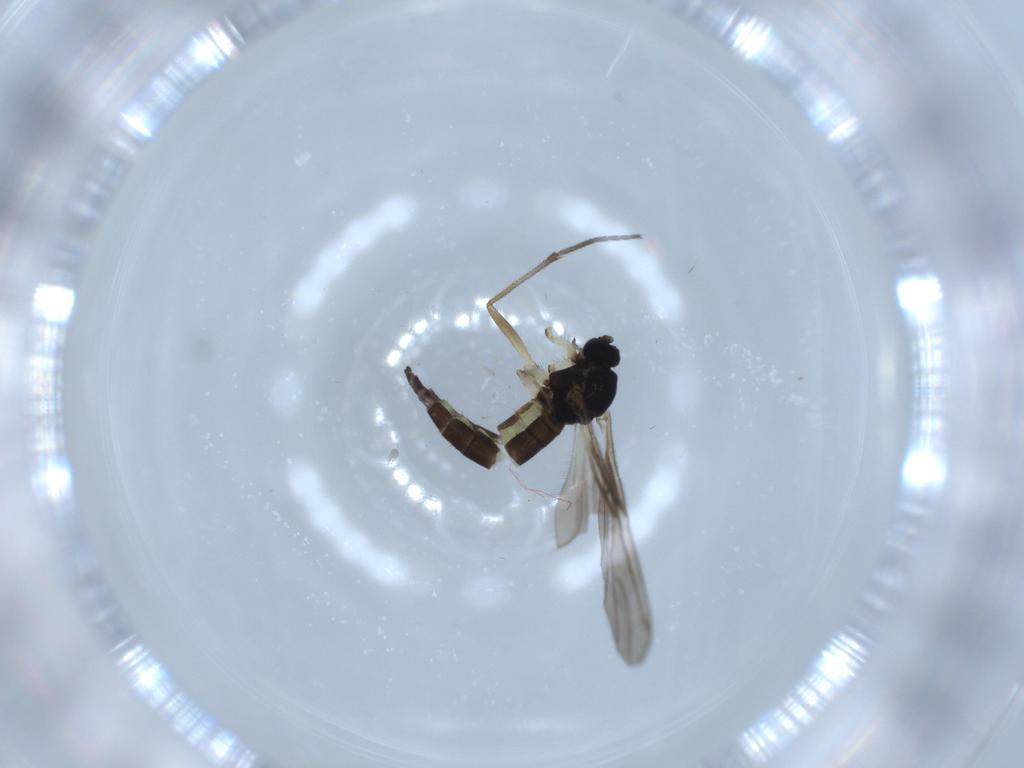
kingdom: Animalia
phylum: Arthropoda
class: Insecta
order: Diptera
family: Sciaridae
